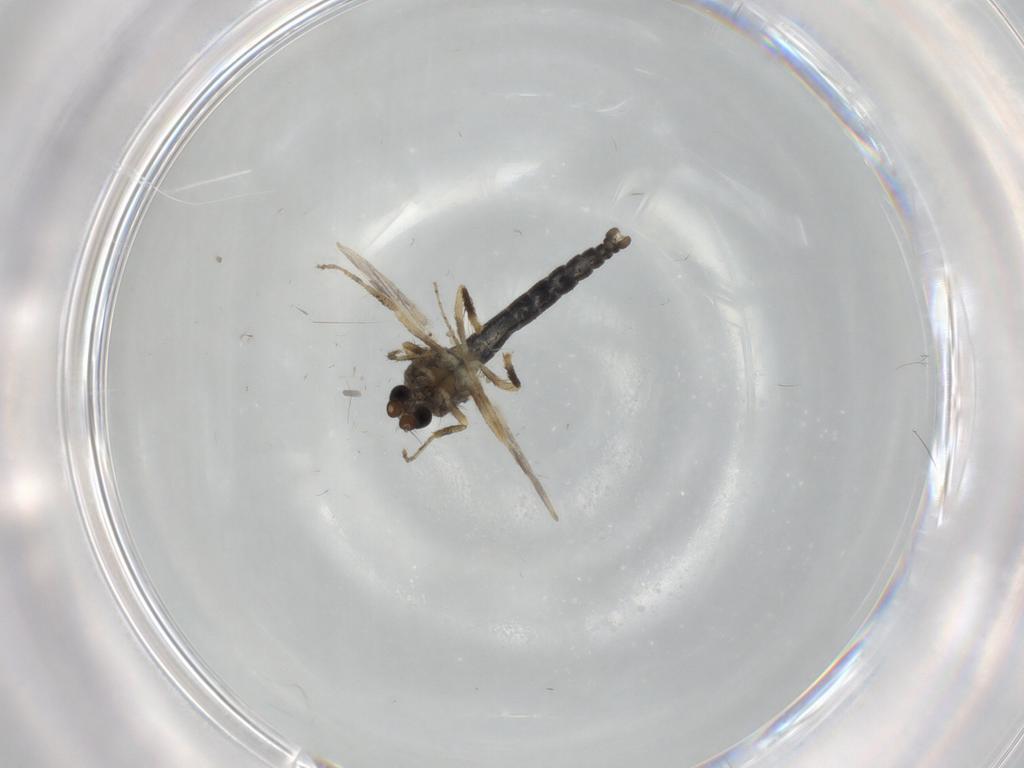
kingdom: Animalia
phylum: Arthropoda
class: Insecta
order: Diptera
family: Ceratopogonidae
